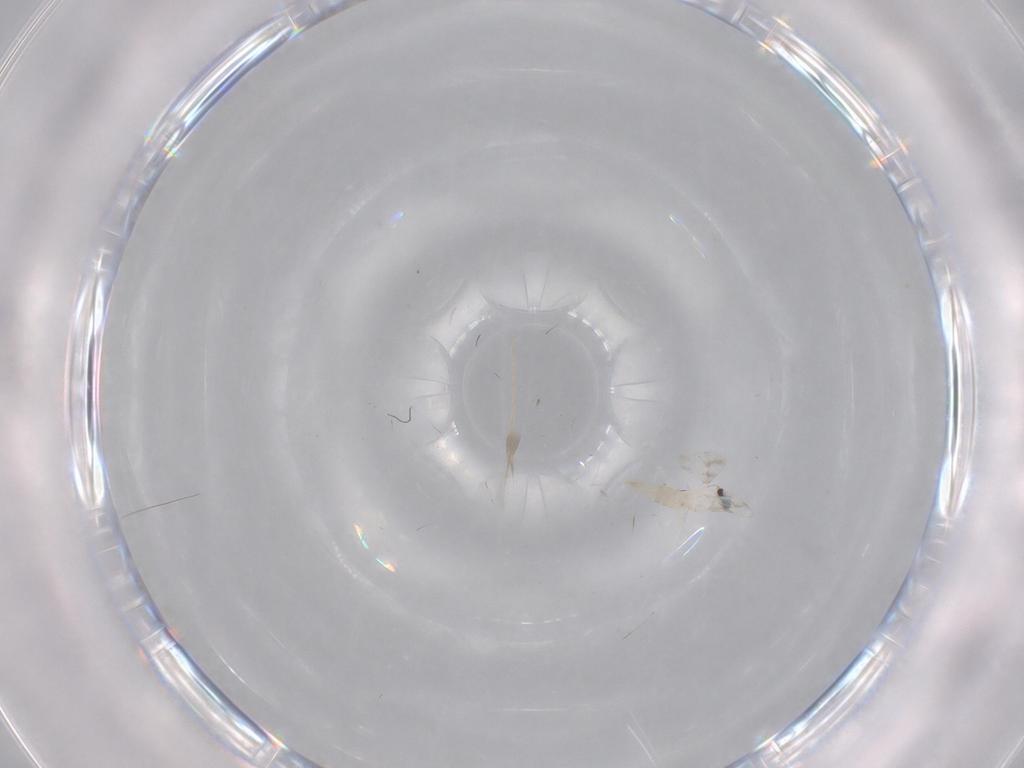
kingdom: Animalia
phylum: Arthropoda
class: Insecta
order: Diptera
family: Cecidomyiidae
